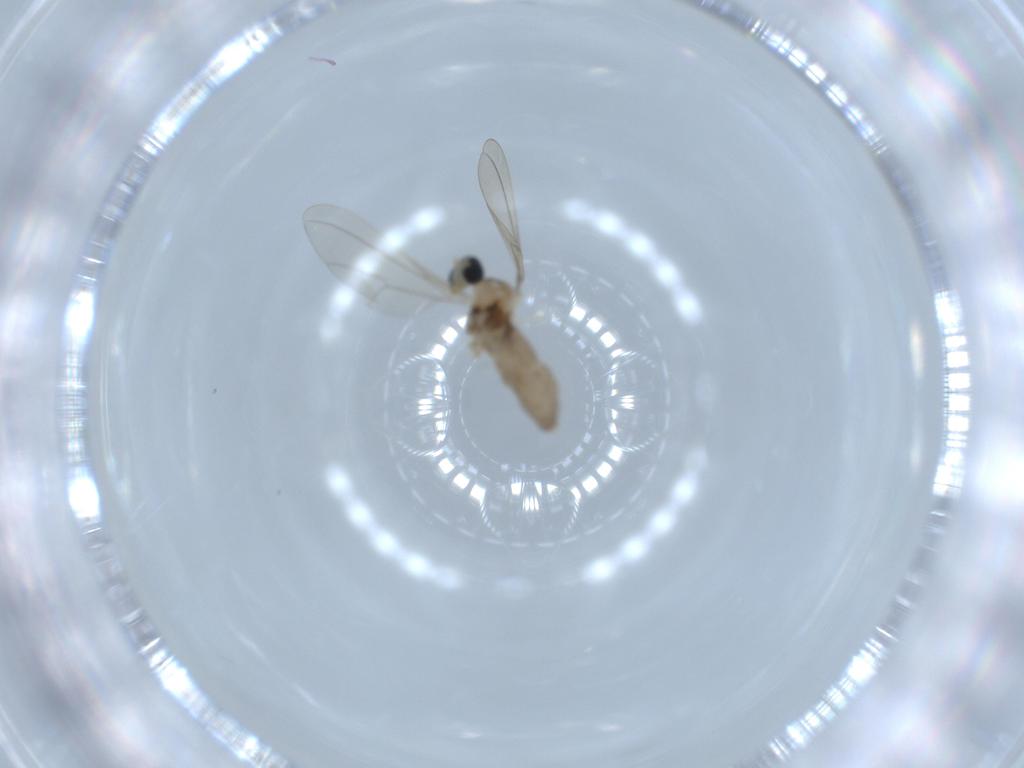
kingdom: Animalia
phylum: Arthropoda
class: Insecta
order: Diptera
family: Cecidomyiidae
